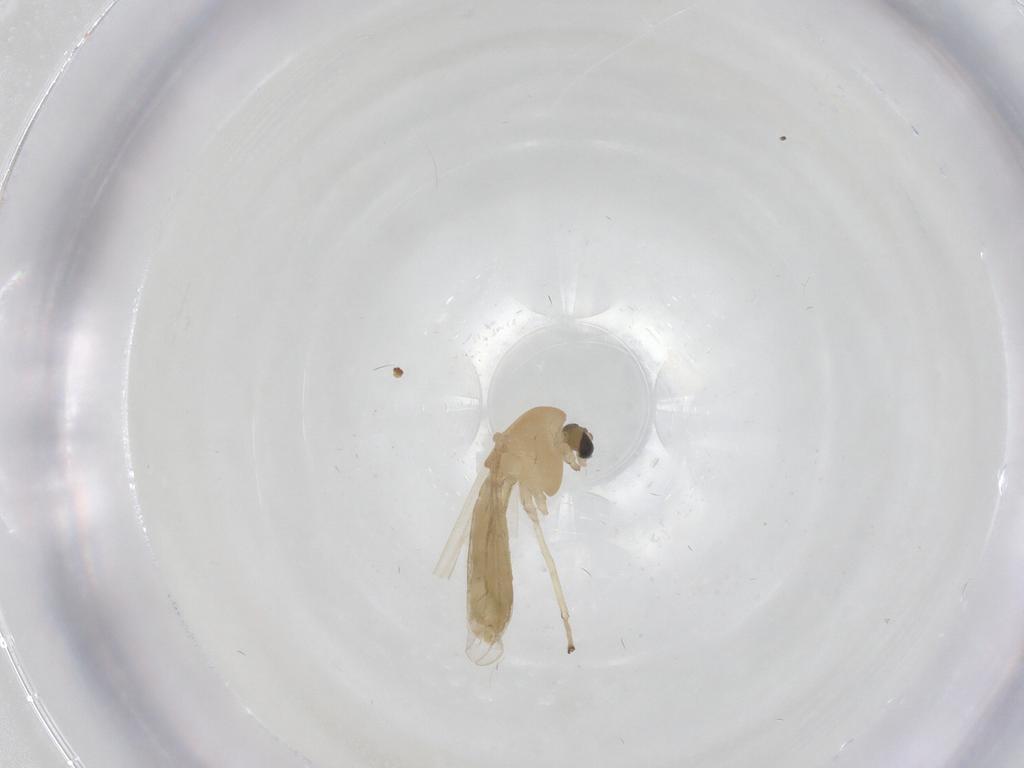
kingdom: Animalia
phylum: Arthropoda
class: Insecta
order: Diptera
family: Chironomidae
